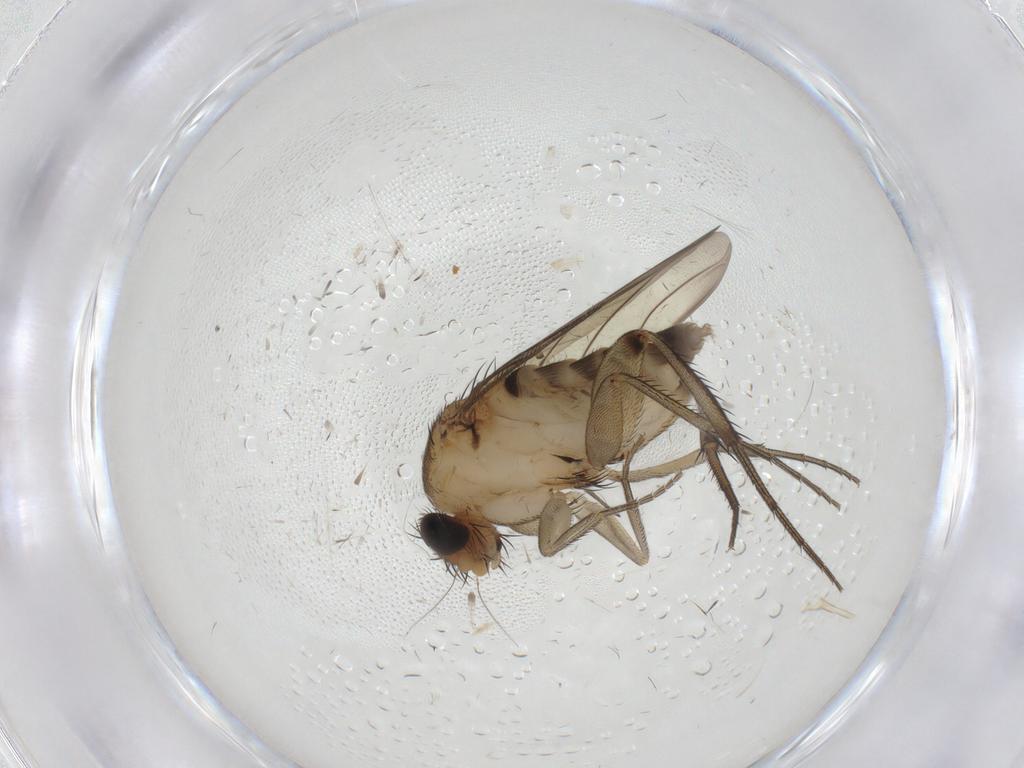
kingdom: Animalia
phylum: Arthropoda
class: Insecta
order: Diptera
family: Phoridae
